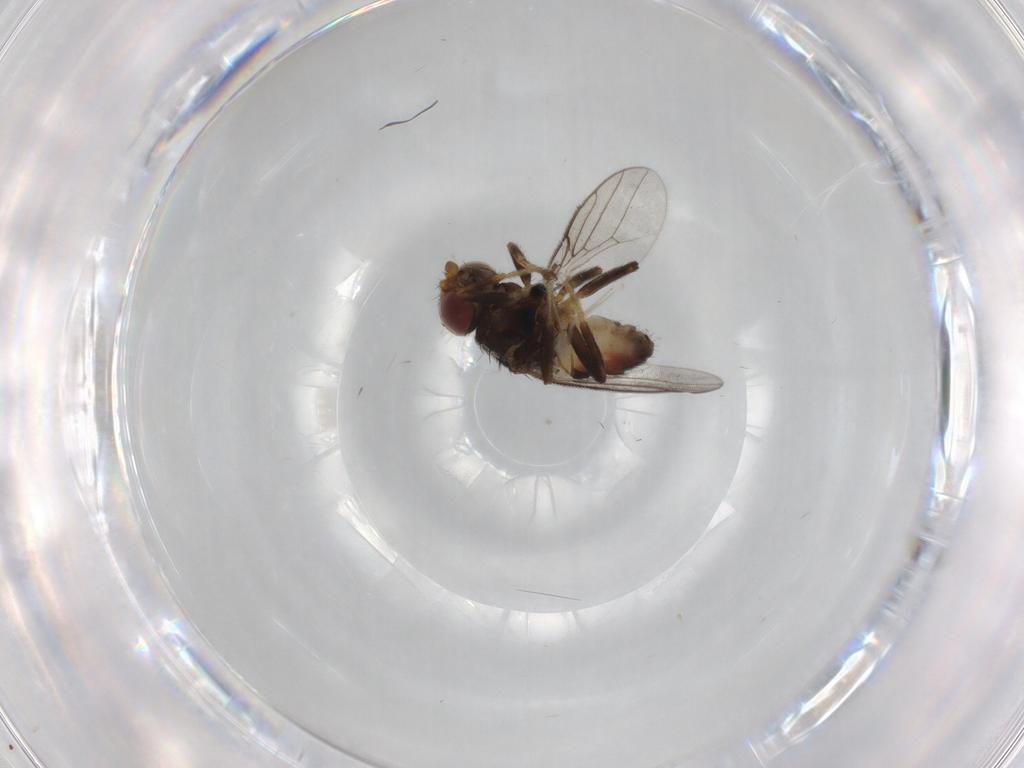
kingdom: Animalia
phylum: Arthropoda
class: Insecta
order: Diptera
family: Chloropidae
